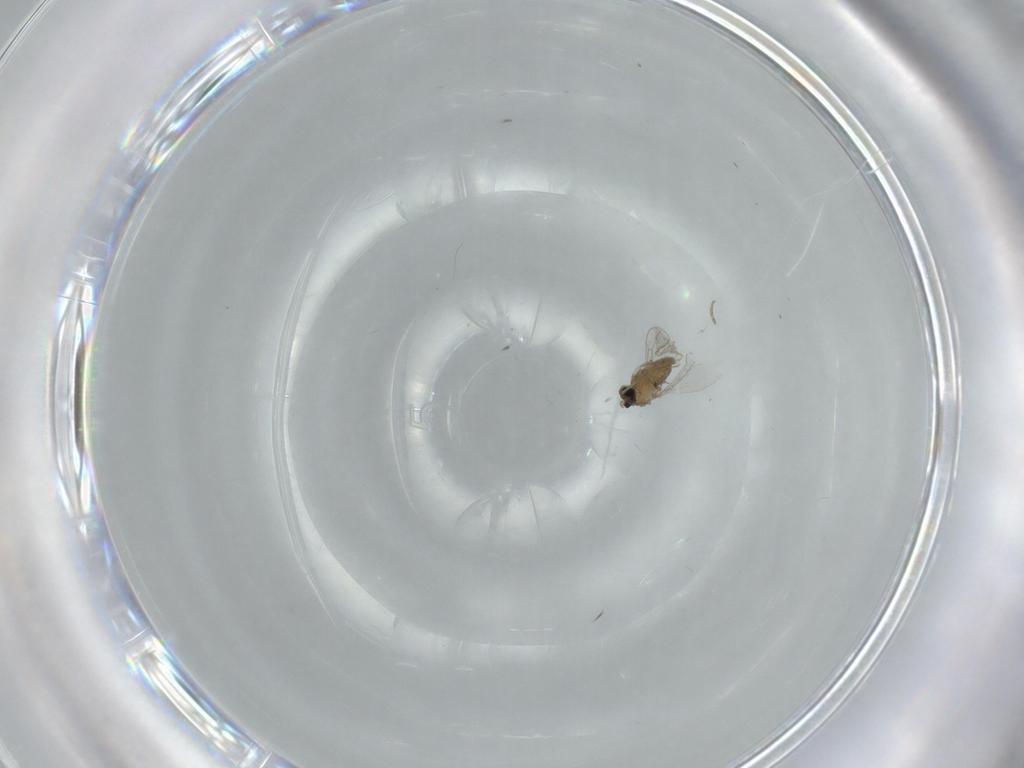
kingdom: Animalia
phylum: Arthropoda
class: Insecta
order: Diptera
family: Cecidomyiidae
